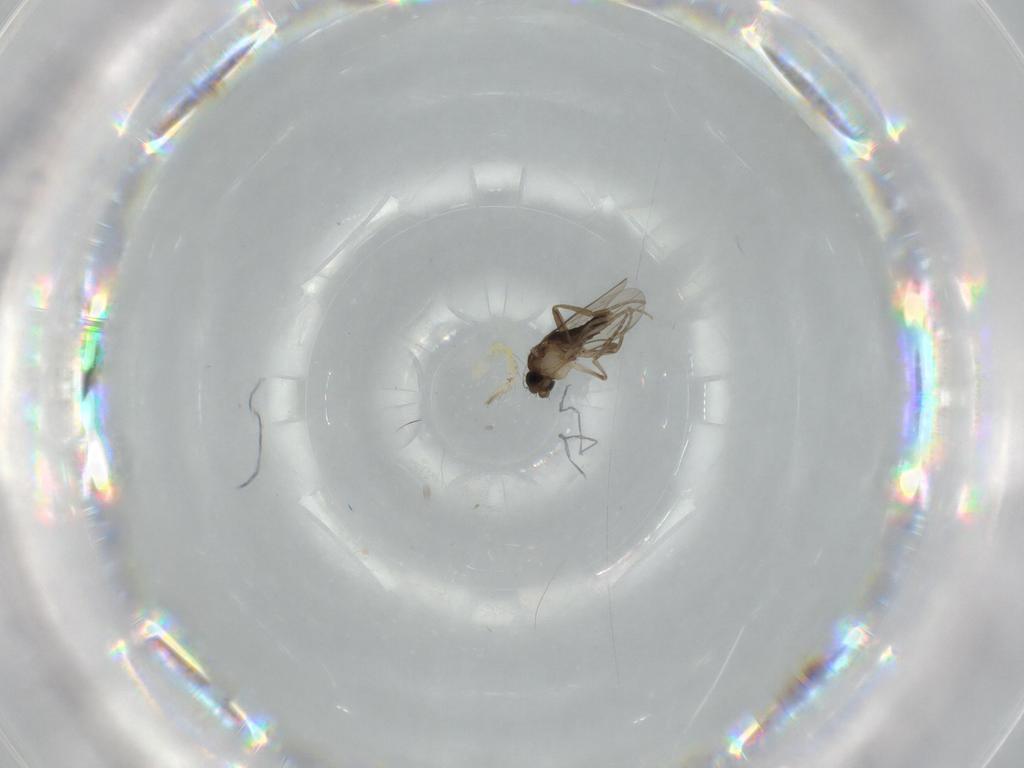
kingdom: Animalia
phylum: Arthropoda
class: Insecta
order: Diptera
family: Phoridae
